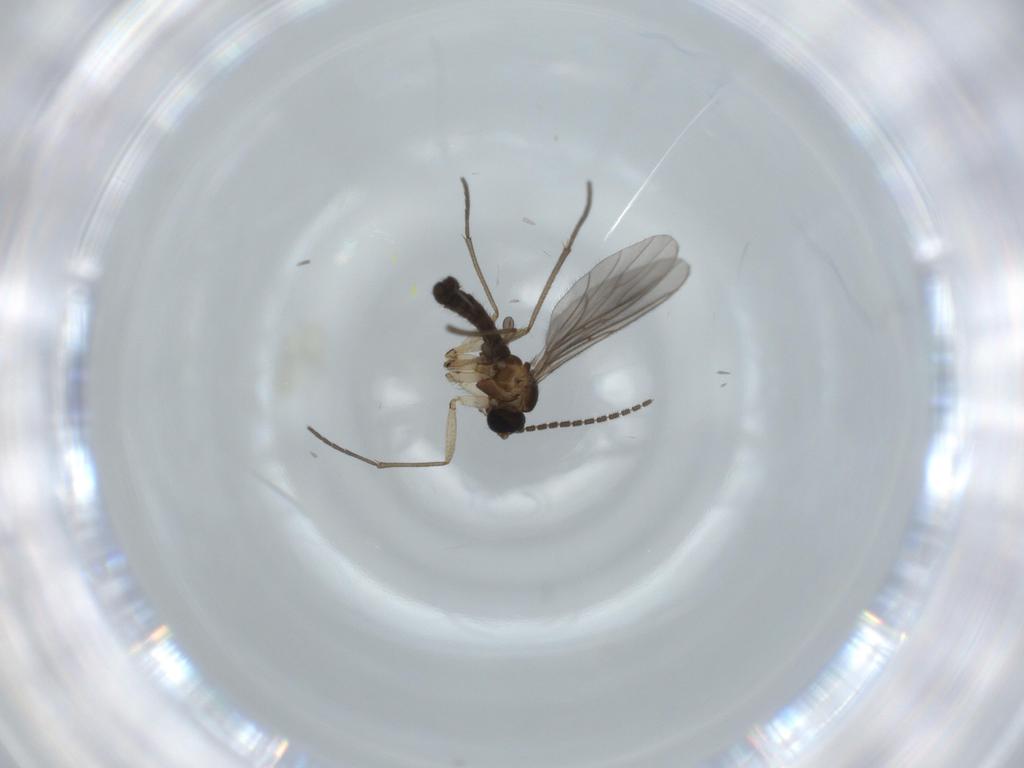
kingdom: Animalia
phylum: Arthropoda
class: Insecta
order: Diptera
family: Sciaridae
